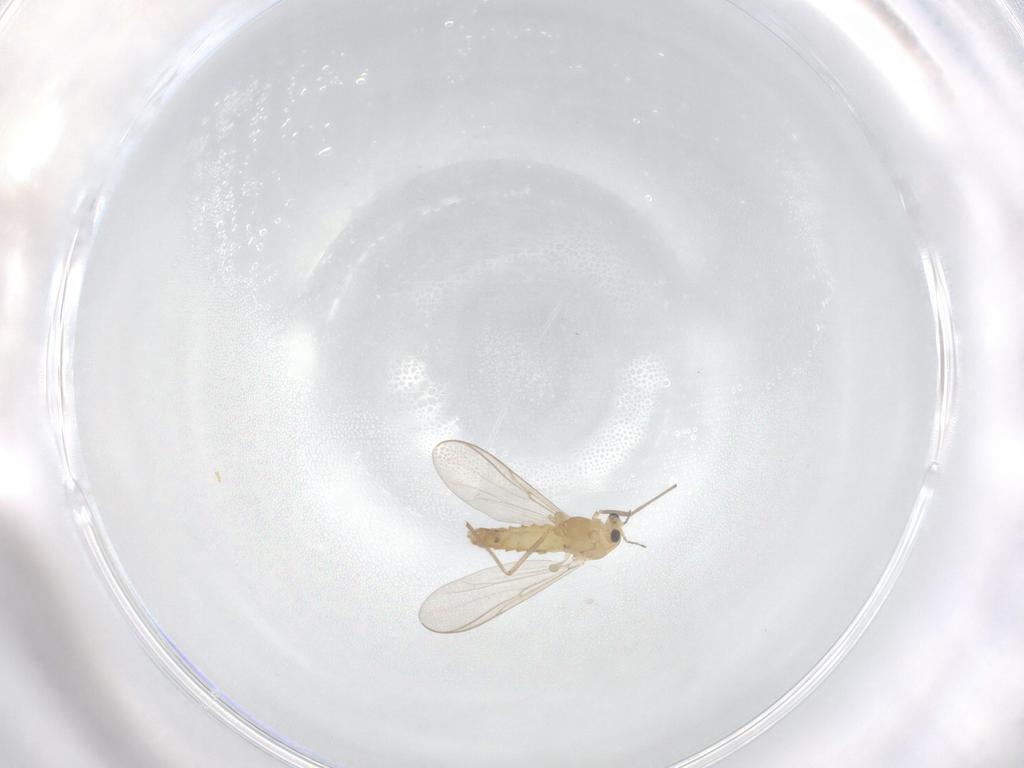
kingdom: Animalia
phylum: Arthropoda
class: Insecta
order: Diptera
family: Chironomidae
